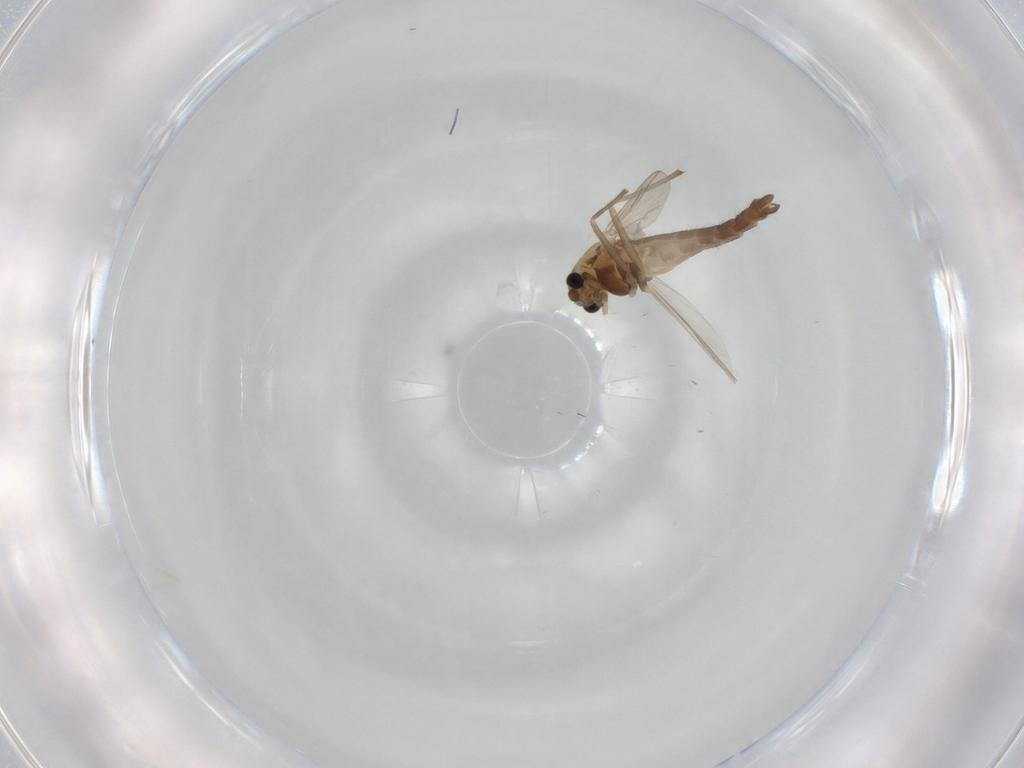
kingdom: Animalia
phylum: Arthropoda
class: Insecta
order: Diptera
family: Chironomidae
